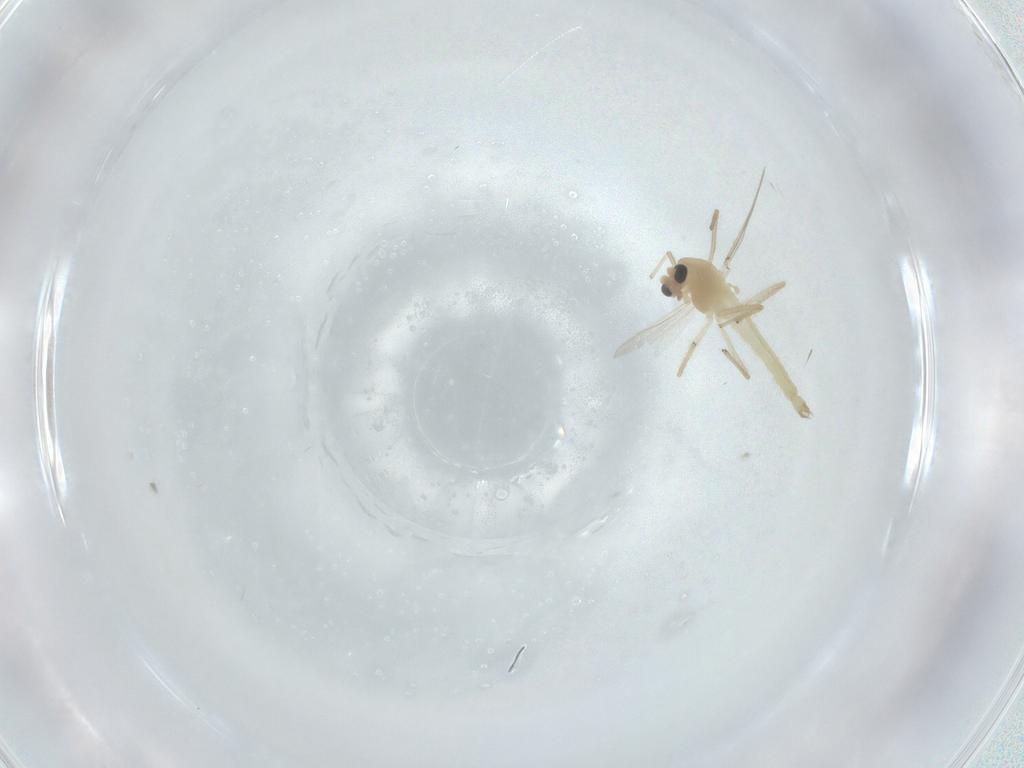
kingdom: Animalia
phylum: Arthropoda
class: Insecta
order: Diptera
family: Chironomidae
